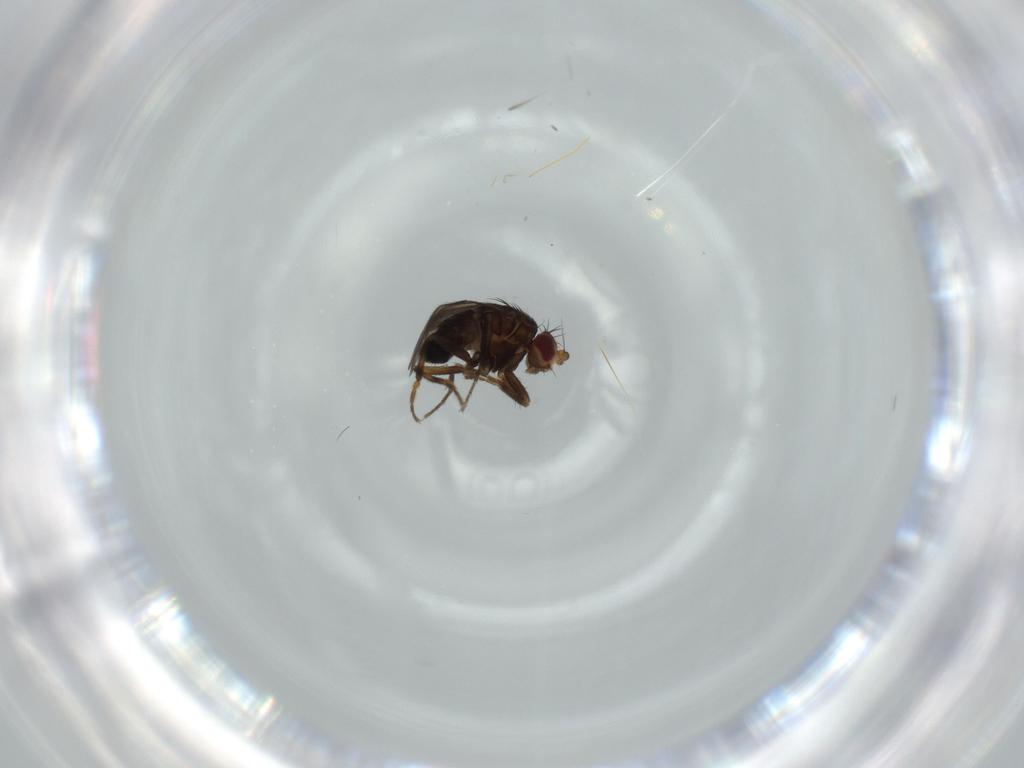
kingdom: Animalia
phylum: Arthropoda
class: Insecta
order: Diptera
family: Sphaeroceridae
